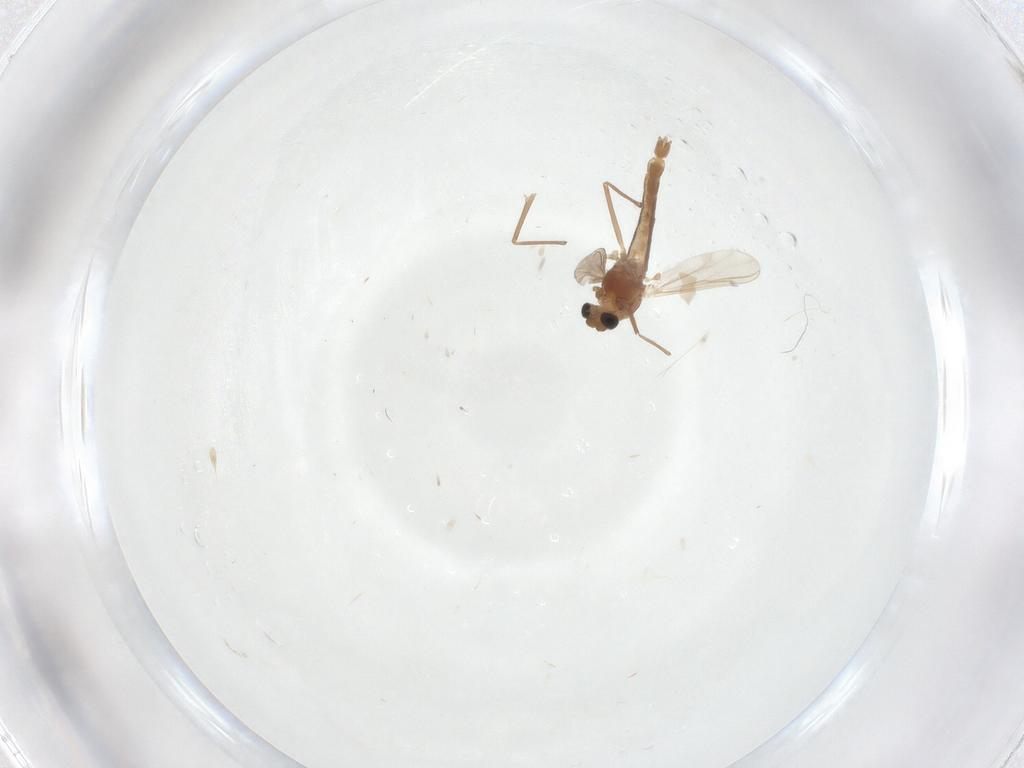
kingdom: Animalia
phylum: Arthropoda
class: Insecta
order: Diptera
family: Chironomidae
